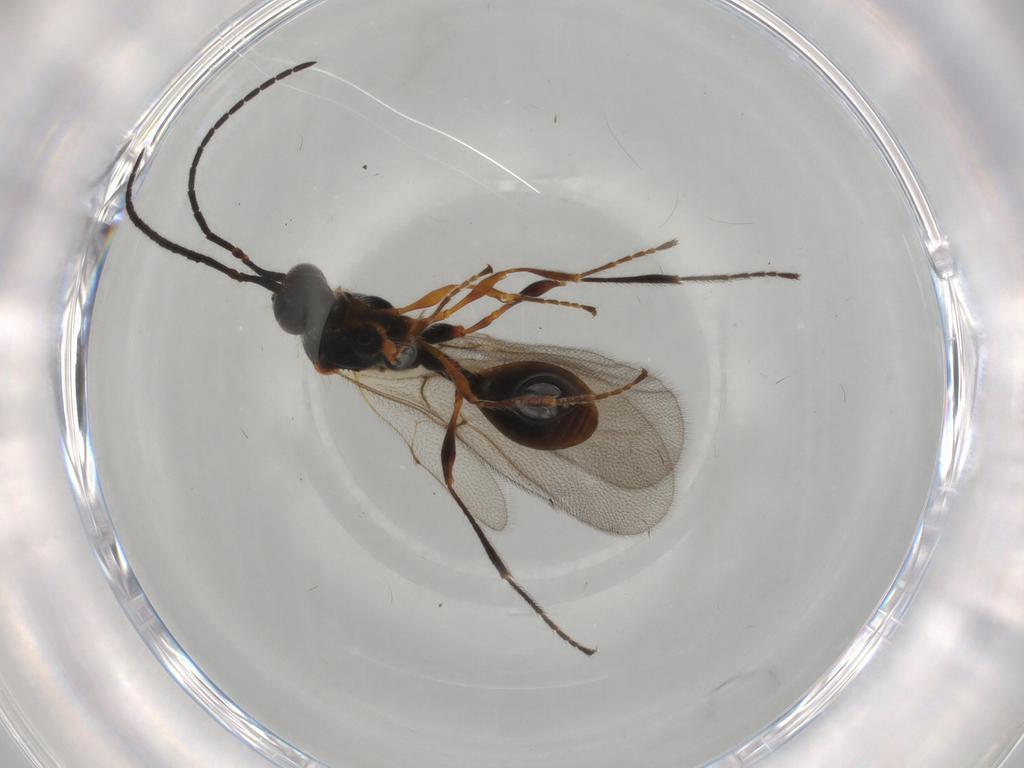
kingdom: Animalia
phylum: Arthropoda
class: Insecta
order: Hymenoptera
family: Diapriidae
